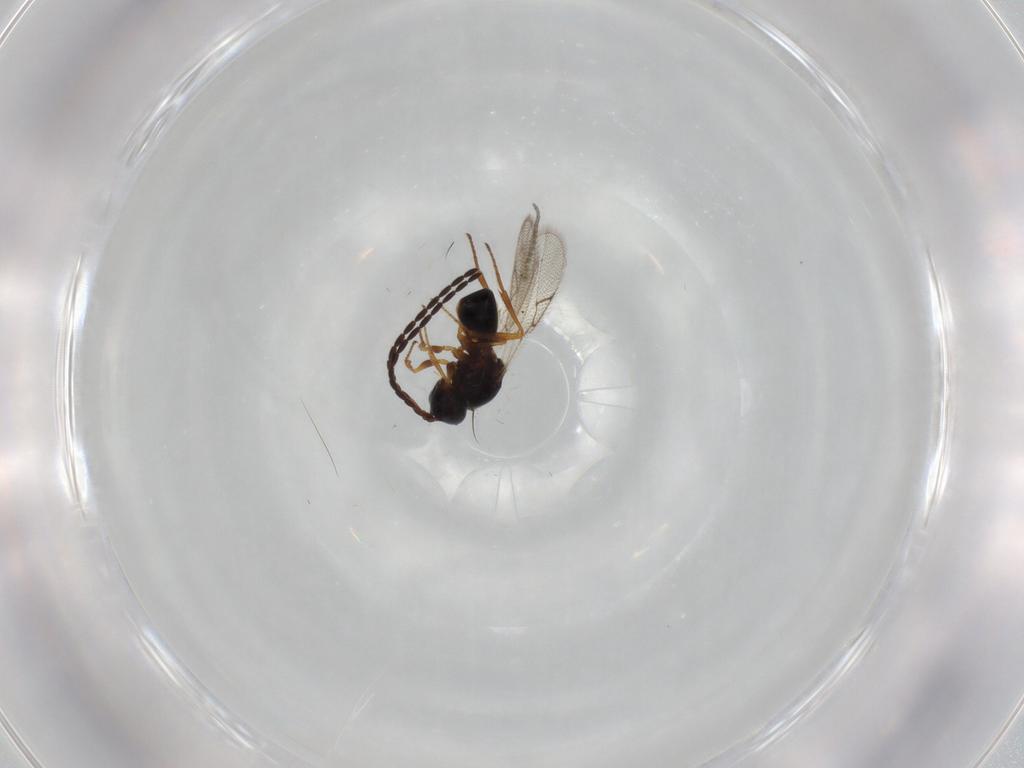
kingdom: Animalia
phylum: Arthropoda
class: Insecta
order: Hymenoptera
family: Figitidae
